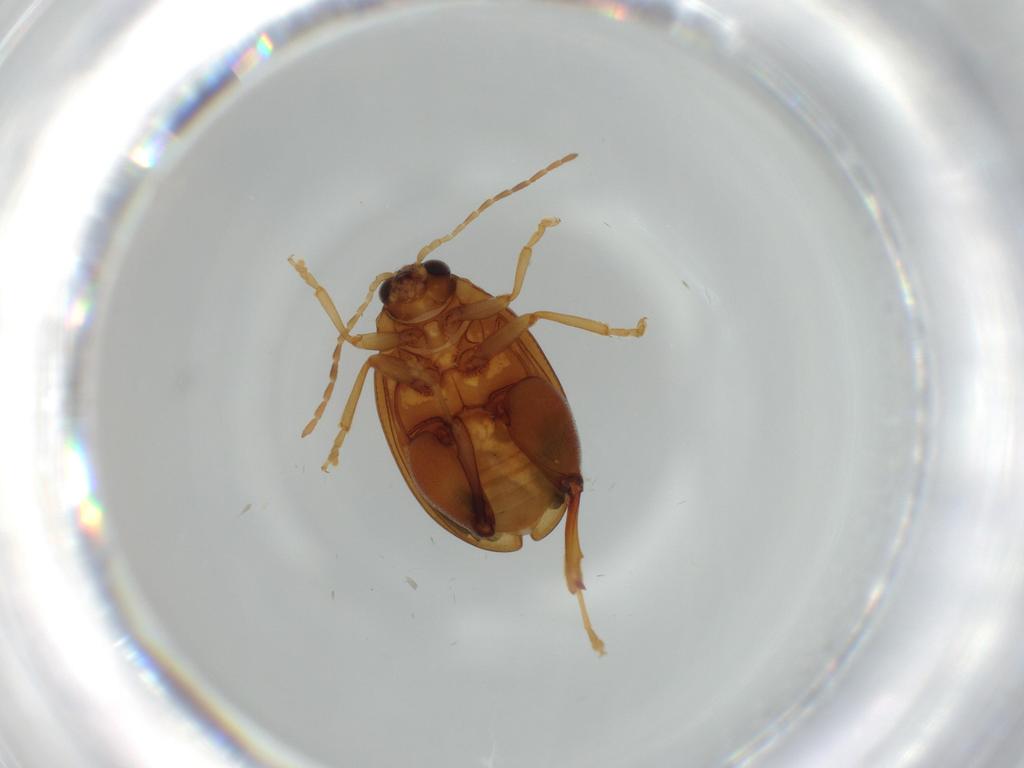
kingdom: Animalia
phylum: Arthropoda
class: Insecta
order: Coleoptera
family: Chrysomelidae
